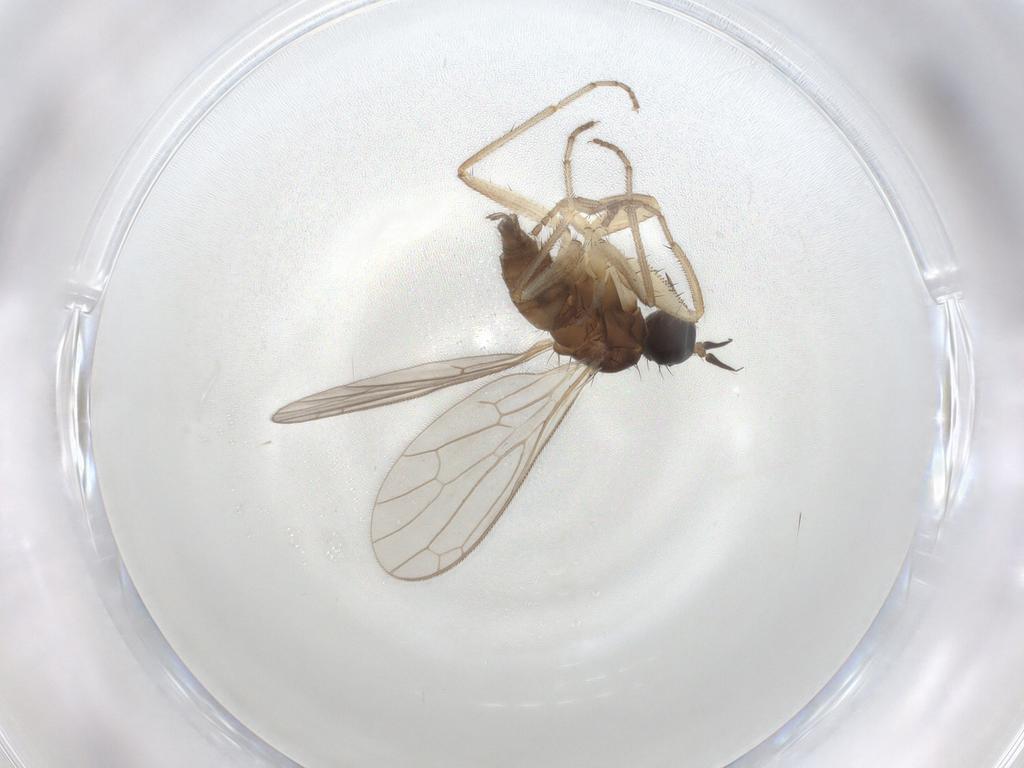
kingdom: Animalia
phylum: Arthropoda
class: Insecta
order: Diptera
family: Empididae
